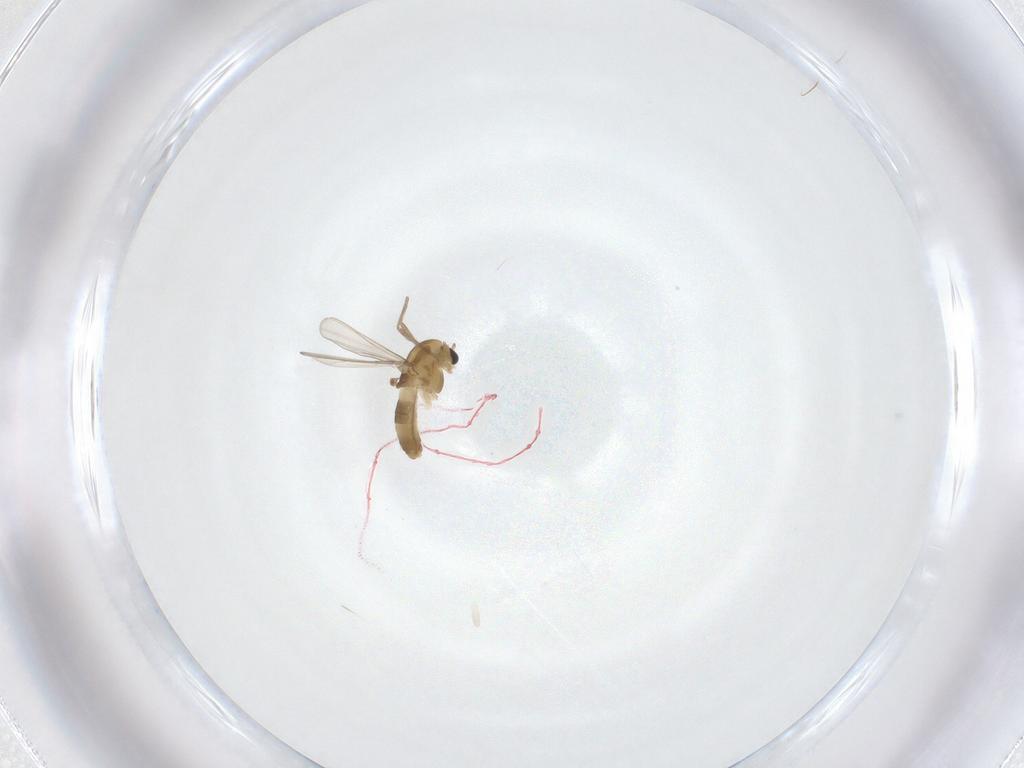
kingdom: Animalia
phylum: Arthropoda
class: Insecta
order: Diptera
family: Chironomidae
